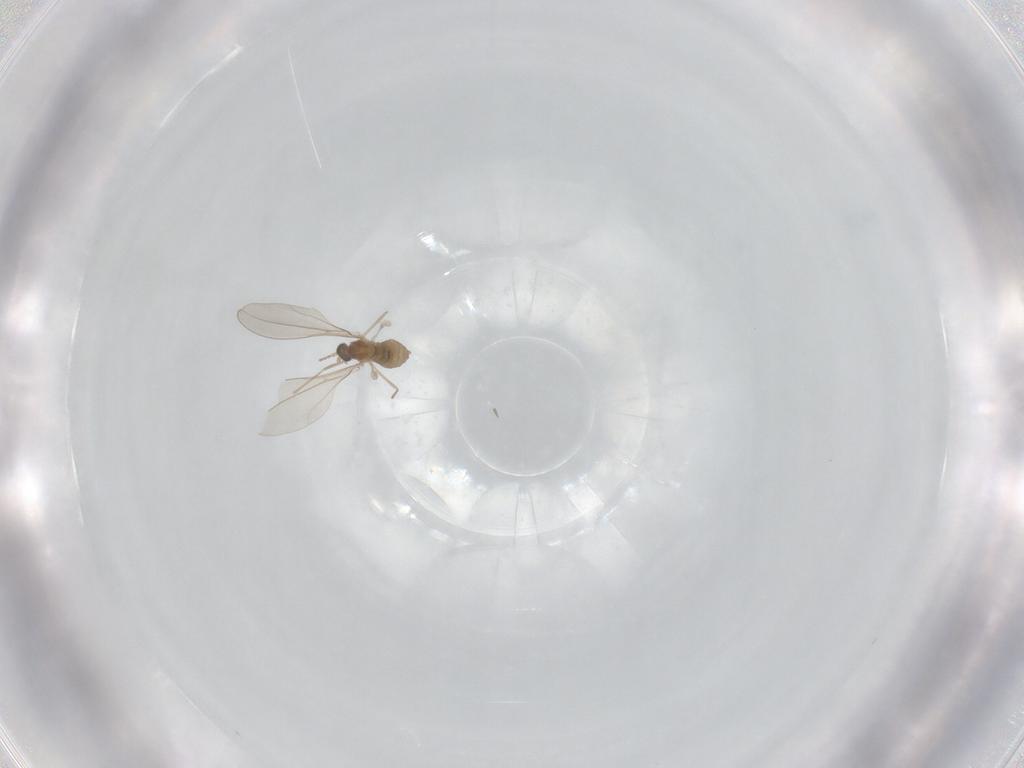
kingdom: Animalia
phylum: Arthropoda
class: Insecta
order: Diptera
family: Cecidomyiidae
